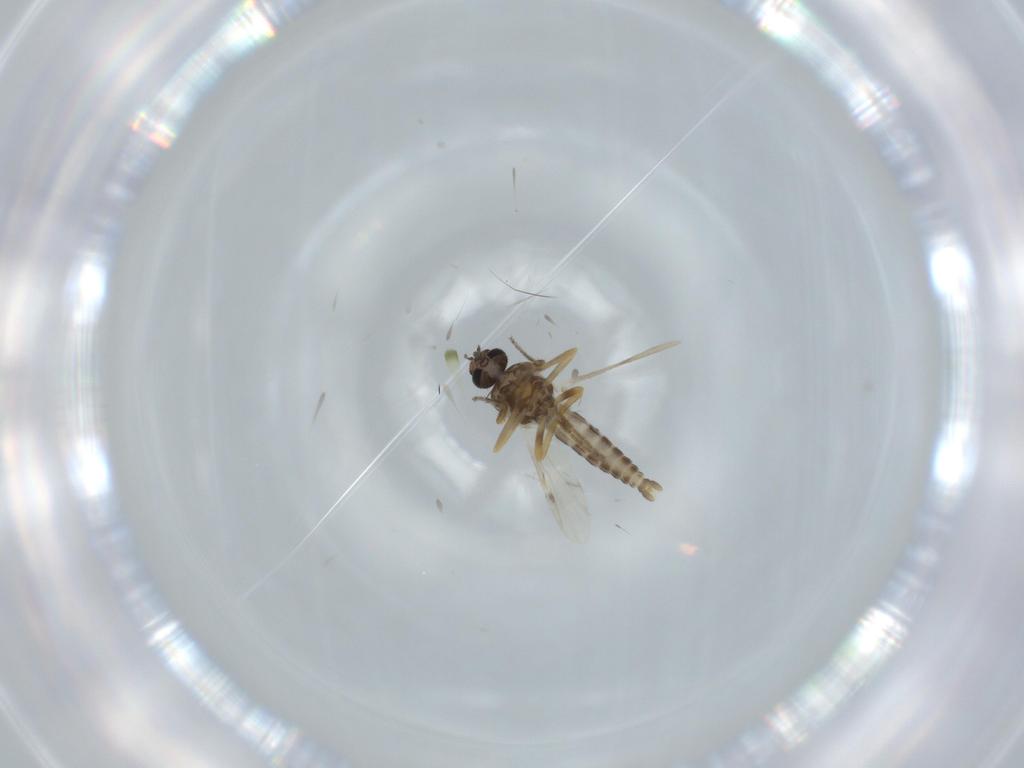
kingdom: Animalia
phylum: Arthropoda
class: Insecta
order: Diptera
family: Ceratopogonidae
